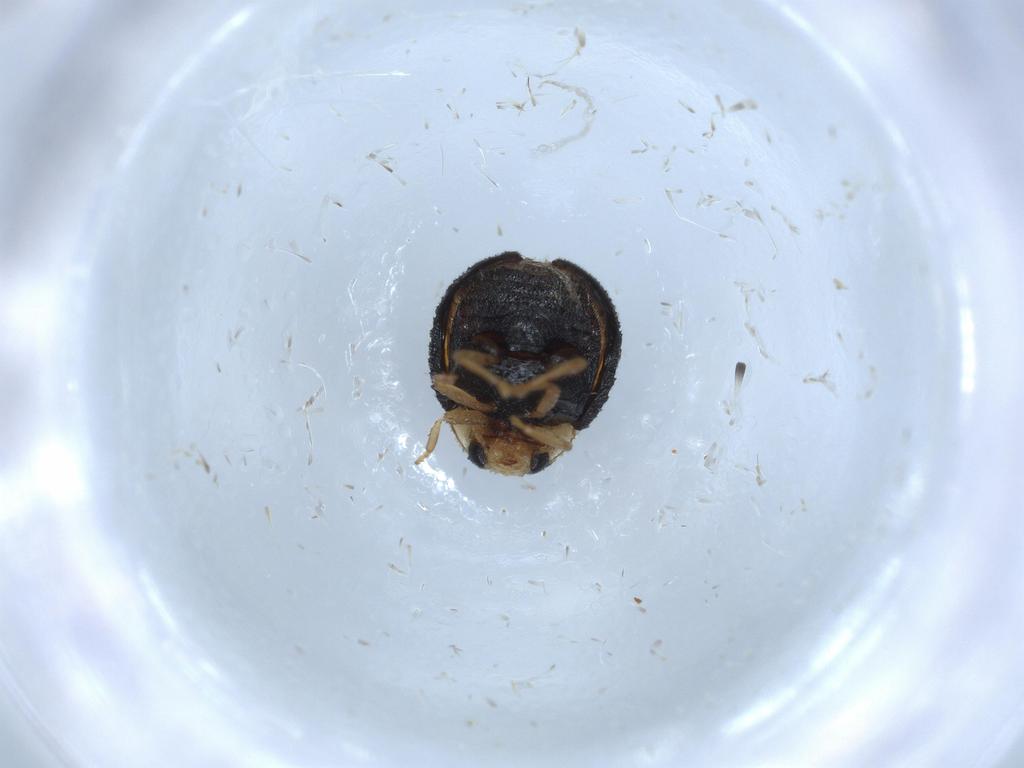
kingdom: Animalia
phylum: Arthropoda
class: Insecta
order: Coleoptera
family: Coccinellidae
